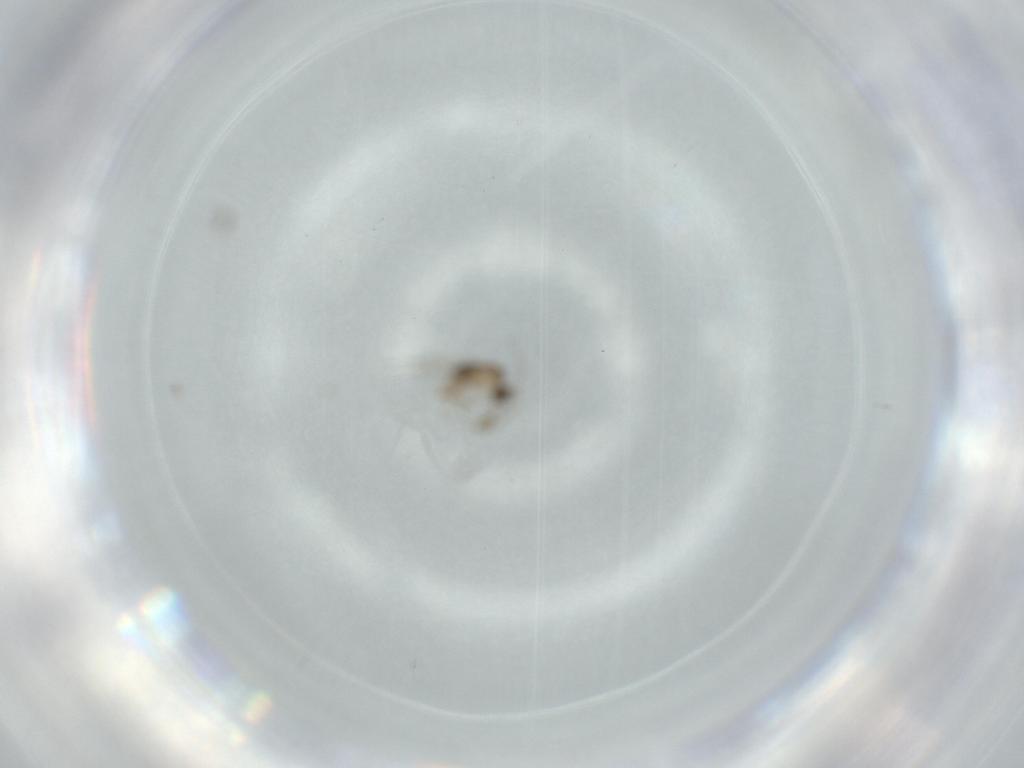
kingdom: Animalia
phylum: Arthropoda
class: Insecta
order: Diptera
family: Cecidomyiidae
